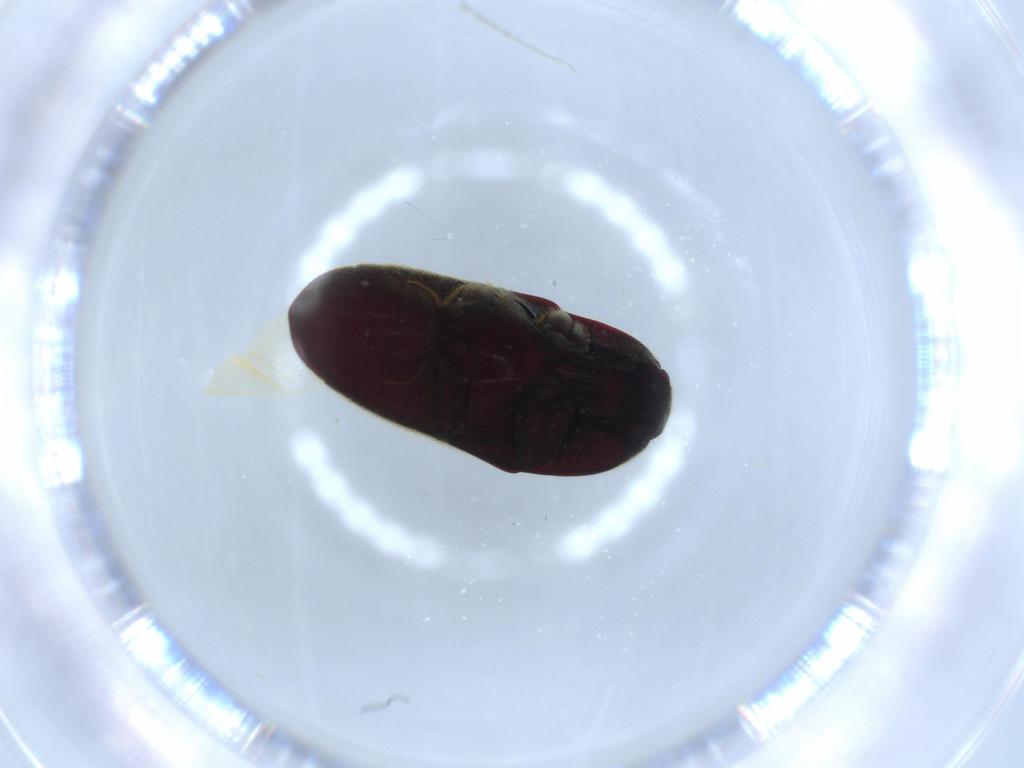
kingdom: Animalia
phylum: Arthropoda
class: Insecta
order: Coleoptera
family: Throscidae
